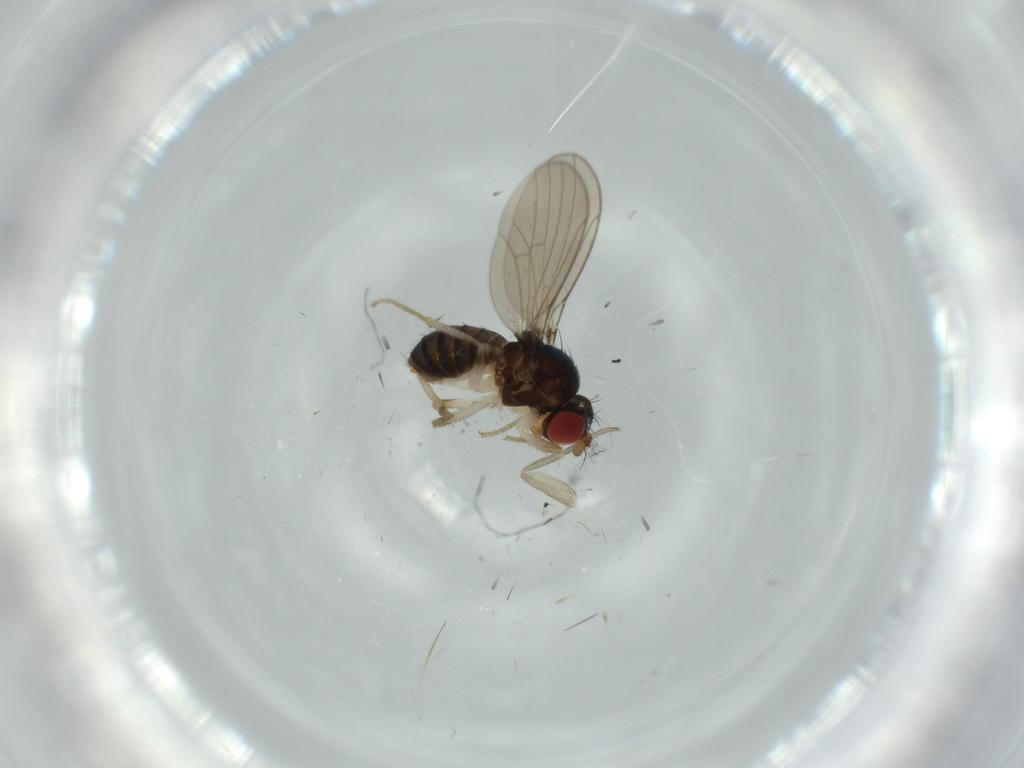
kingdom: Animalia
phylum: Arthropoda
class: Insecta
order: Diptera
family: Drosophilidae
